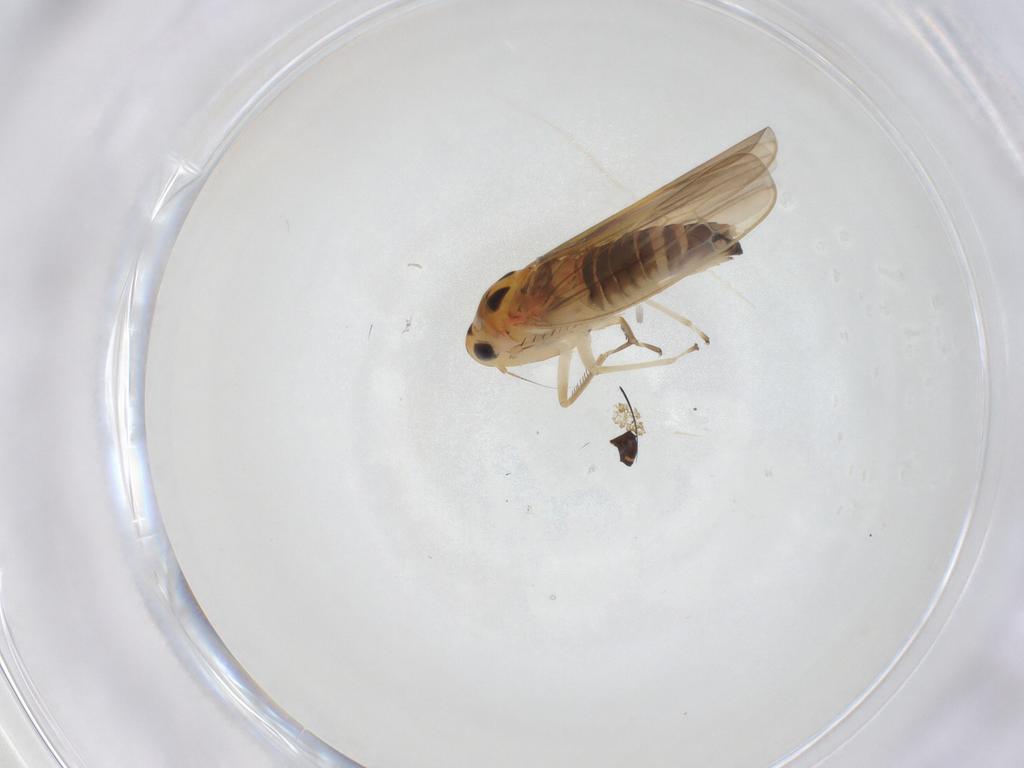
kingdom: Animalia
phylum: Arthropoda
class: Insecta
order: Hemiptera
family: Cicadellidae
